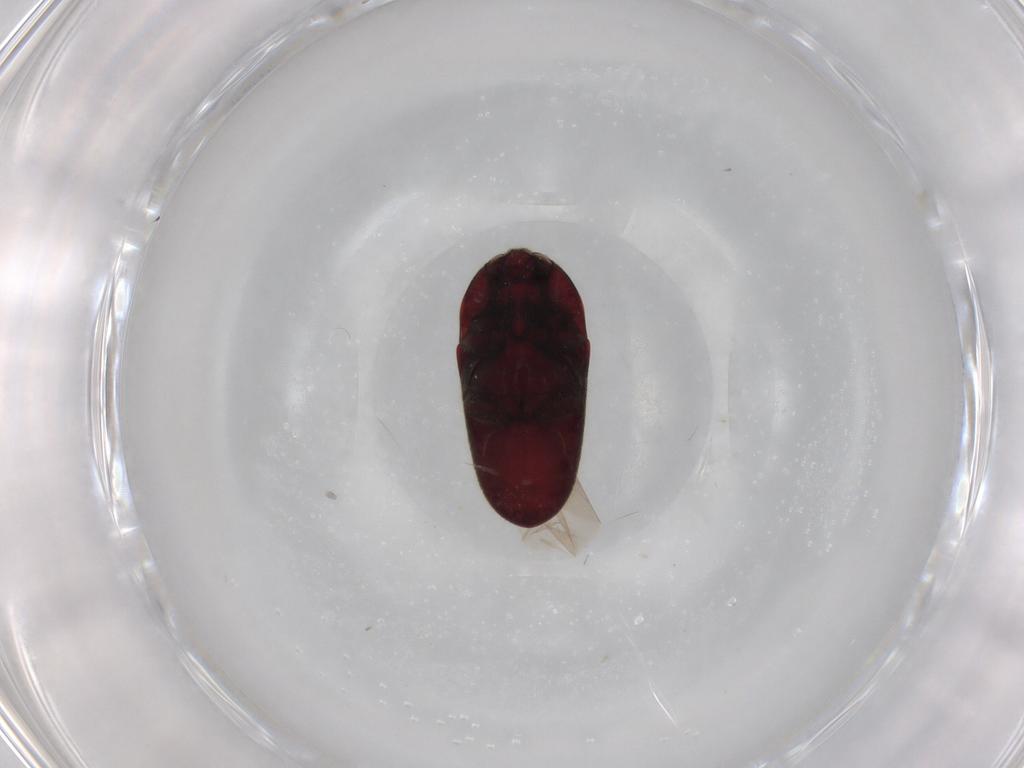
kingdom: Animalia
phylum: Arthropoda
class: Insecta
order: Coleoptera
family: Throscidae
